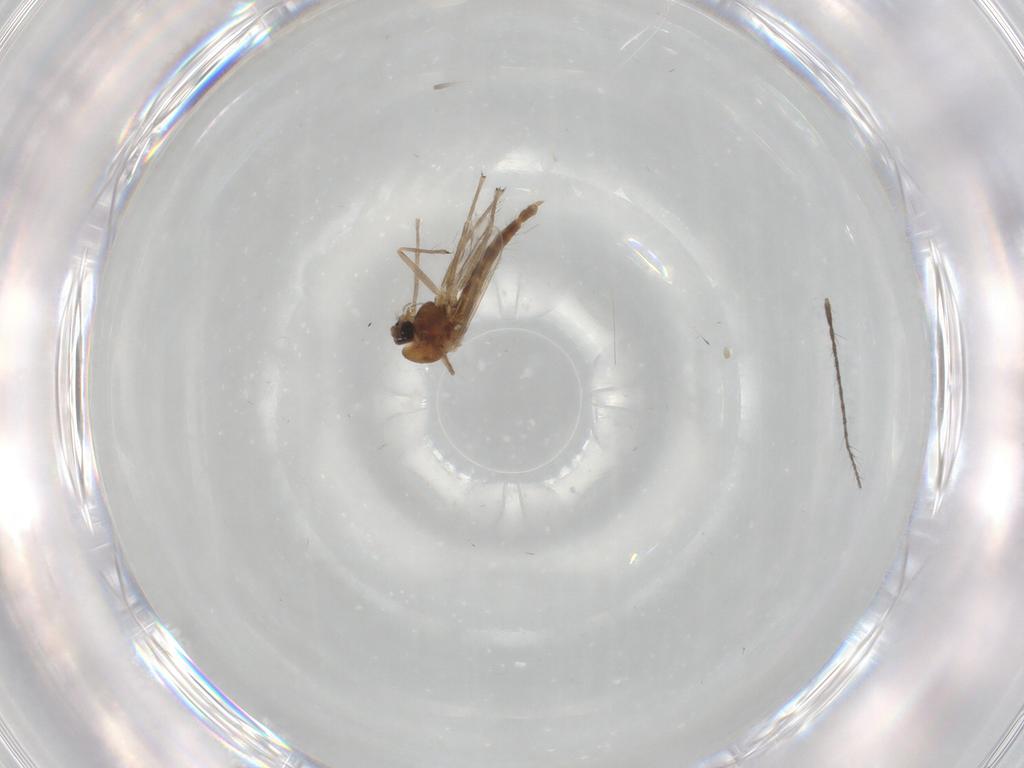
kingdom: Animalia
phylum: Arthropoda
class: Insecta
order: Diptera
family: Chironomidae
